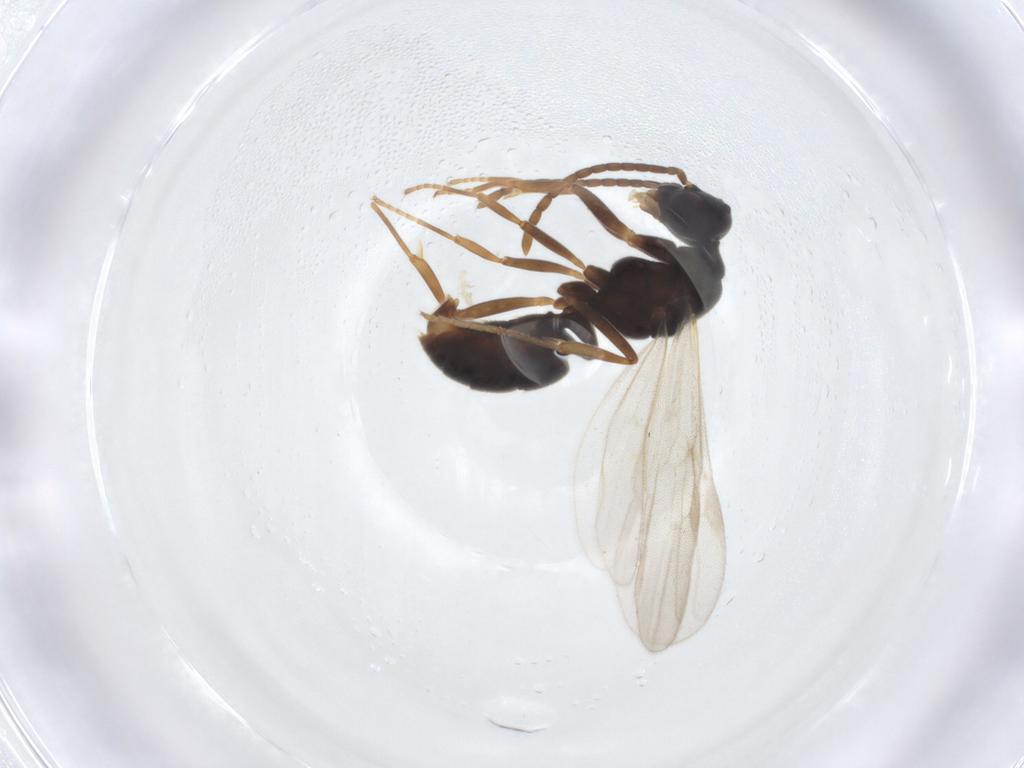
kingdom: Animalia
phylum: Arthropoda
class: Insecta
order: Hymenoptera
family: Formicidae
